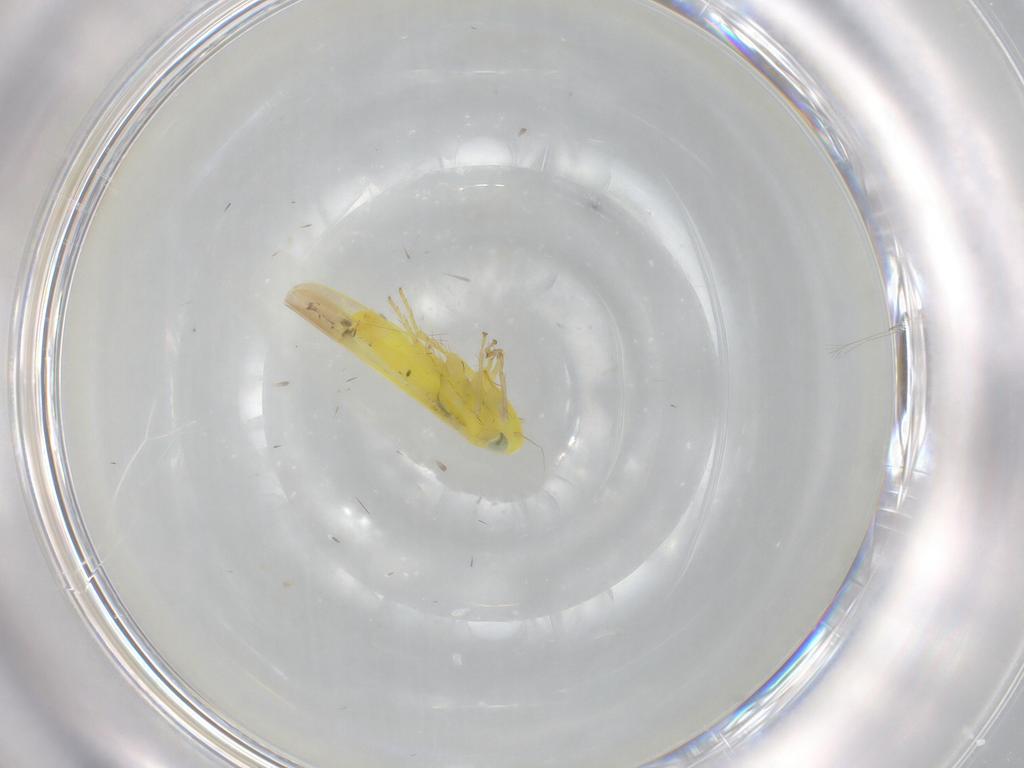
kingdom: Animalia
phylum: Arthropoda
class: Insecta
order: Hemiptera
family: Cicadellidae
